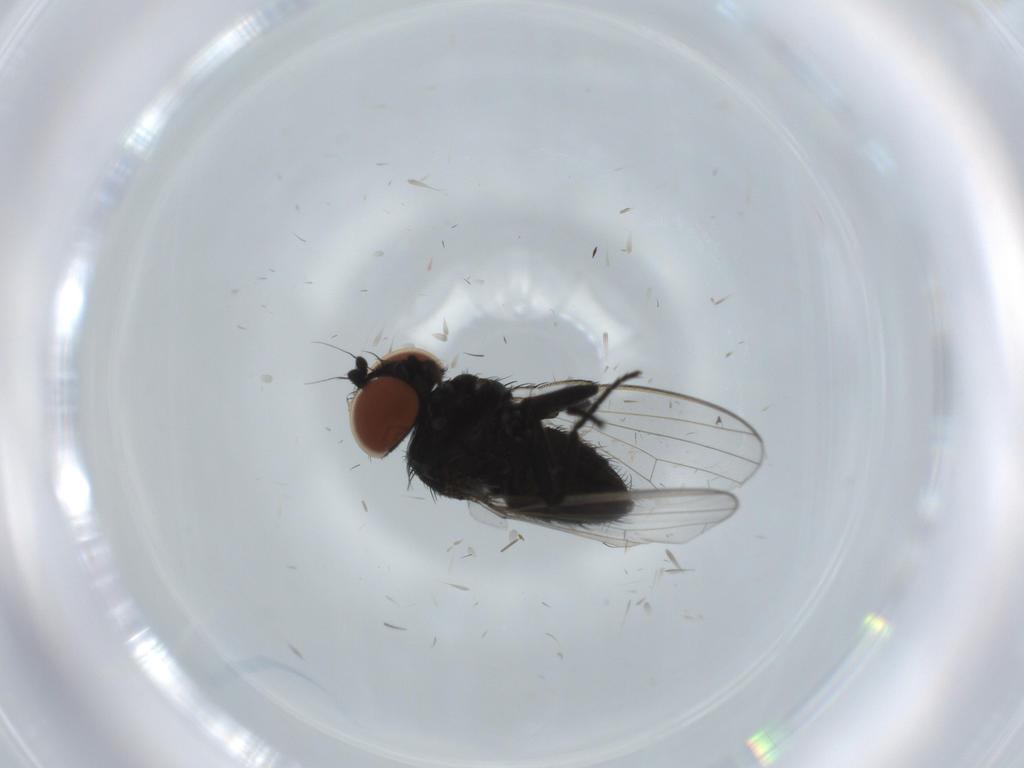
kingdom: Animalia
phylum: Arthropoda
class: Insecta
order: Diptera
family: Milichiidae
